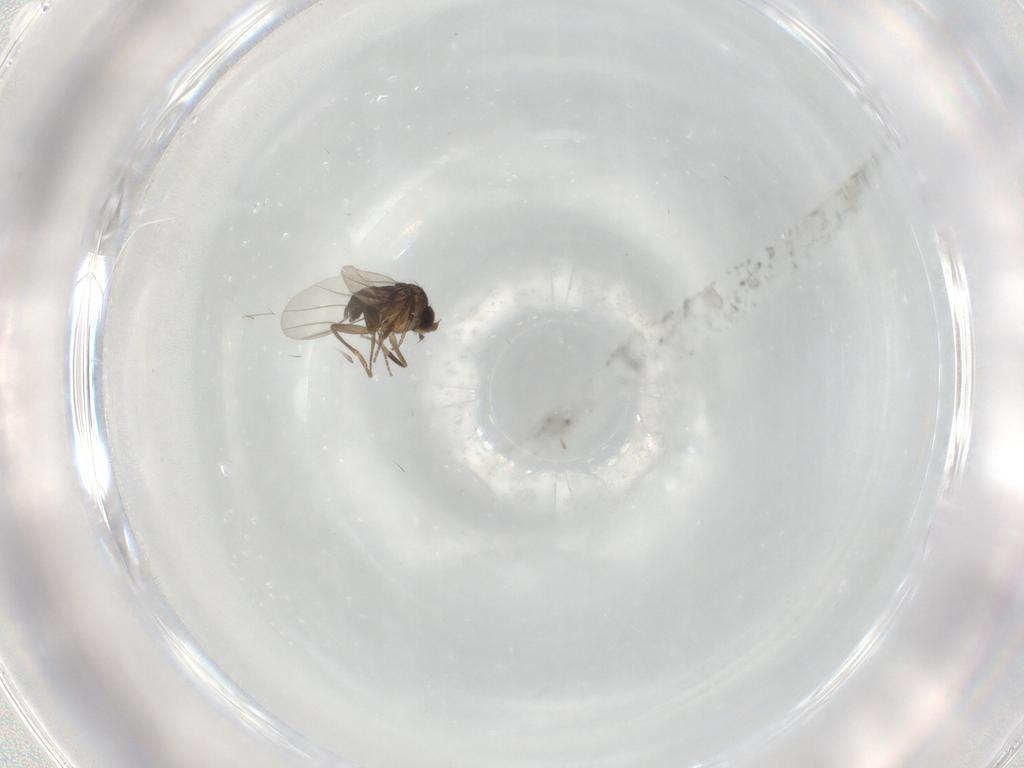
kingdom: Animalia
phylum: Arthropoda
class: Insecta
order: Diptera
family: Phoridae
